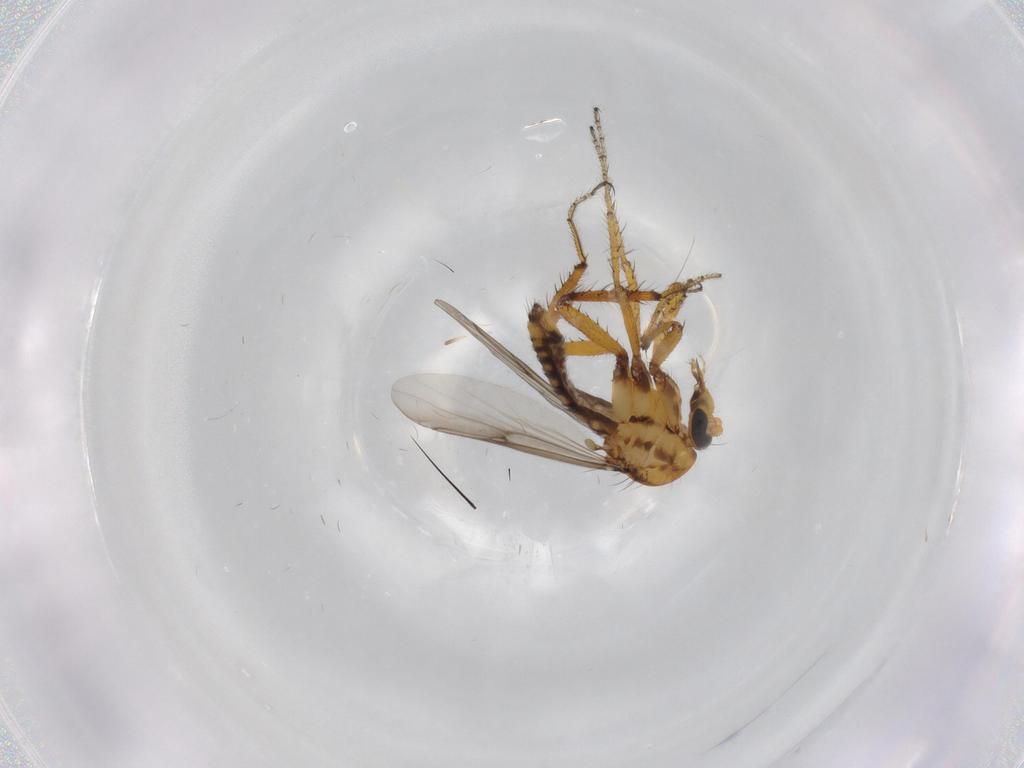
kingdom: Animalia
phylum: Arthropoda
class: Insecta
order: Diptera
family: Ceratopogonidae
